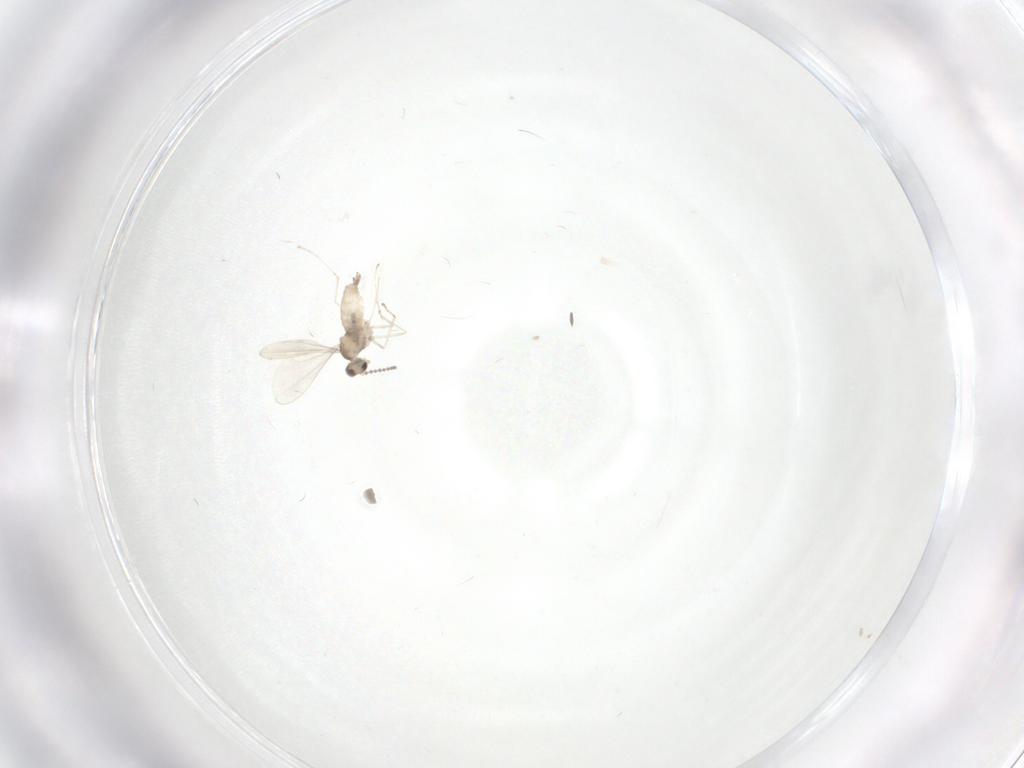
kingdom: Animalia
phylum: Arthropoda
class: Insecta
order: Diptera
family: Cecidomyiidae
